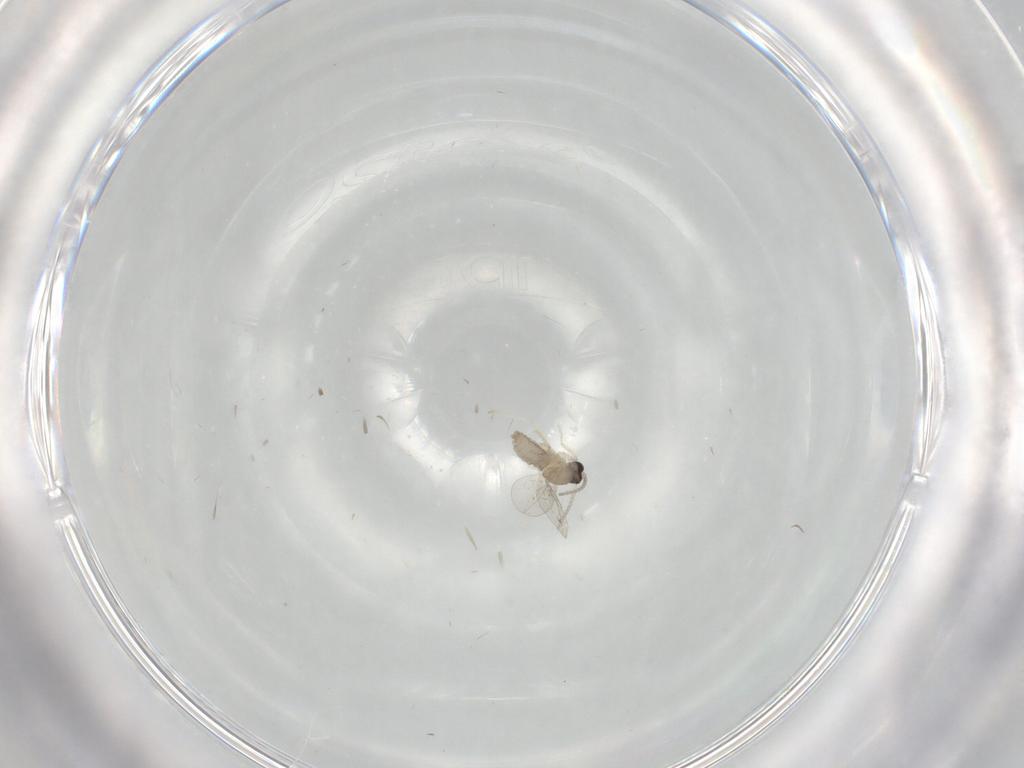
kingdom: Animalia
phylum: Arthropoda
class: Insecta
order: Diptera
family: Cecidomyiidae
